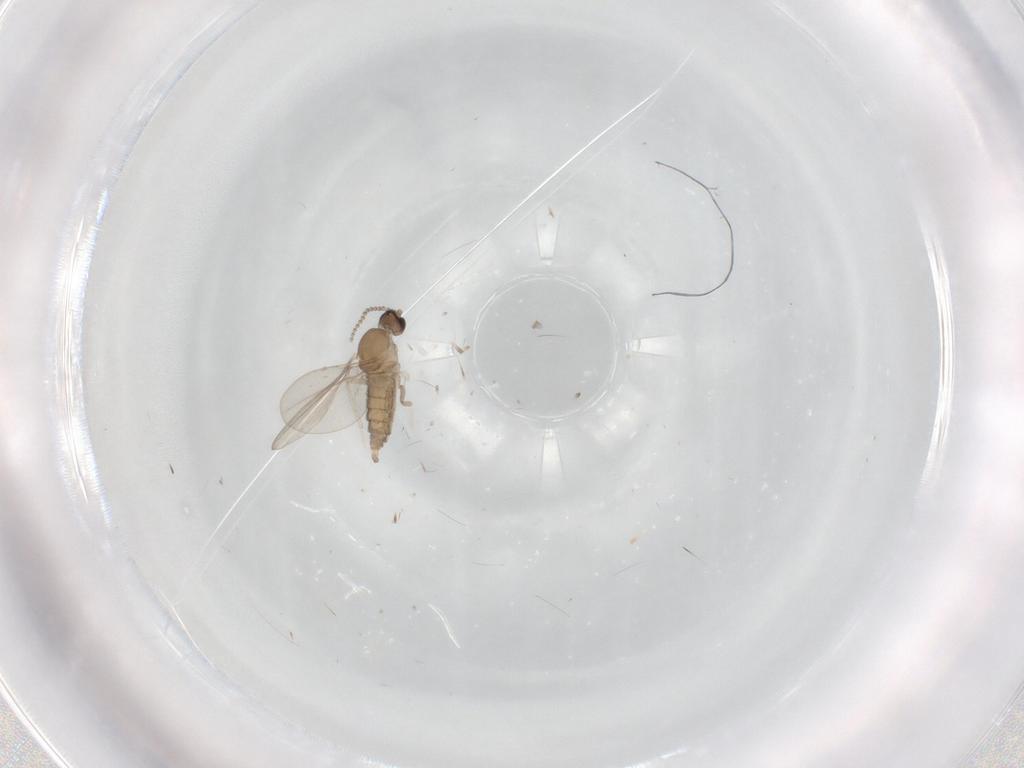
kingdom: Animalia
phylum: Arthropoda
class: Insecta
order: Diptera
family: Cecidomyiidae
